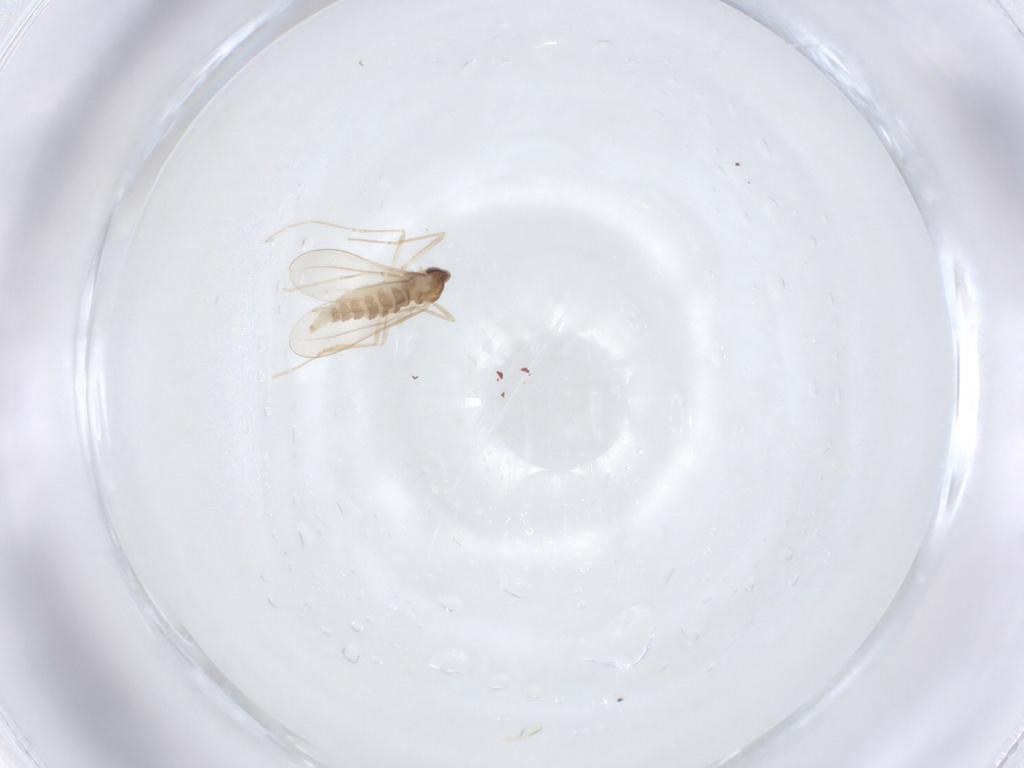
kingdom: Animalia
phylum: Arthropoda
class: Insecta
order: Diptera
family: Cecidomyiidae
